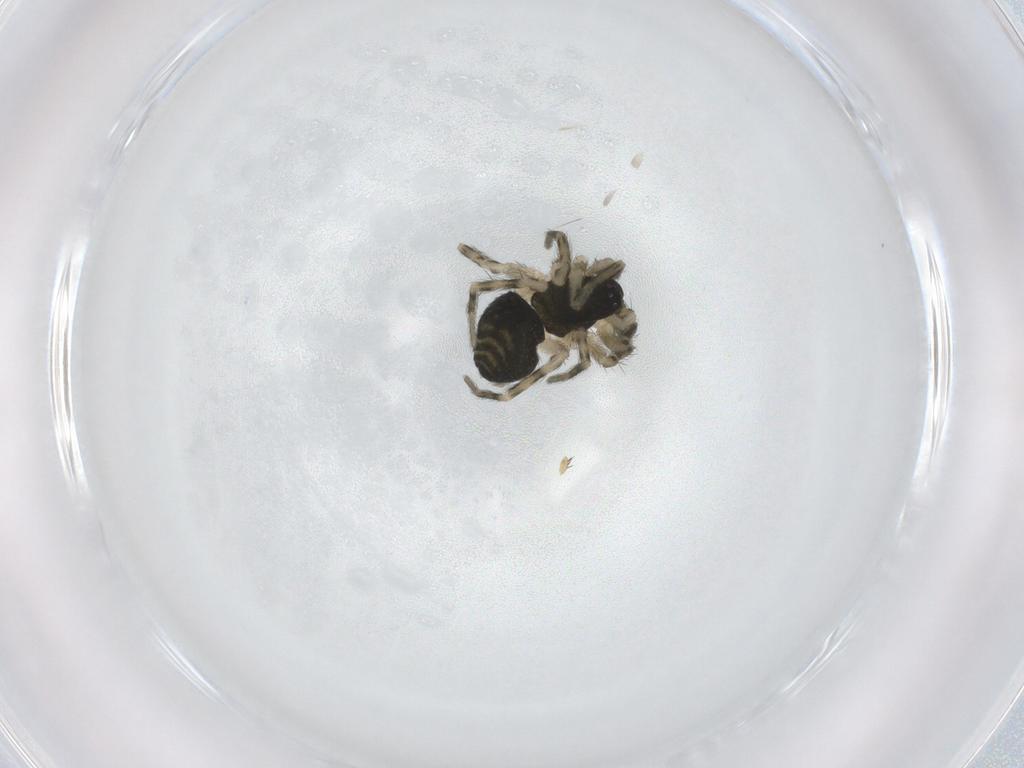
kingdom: Animalia
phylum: Arthropoda
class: Arachnida
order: Araneae
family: Hahniidae
